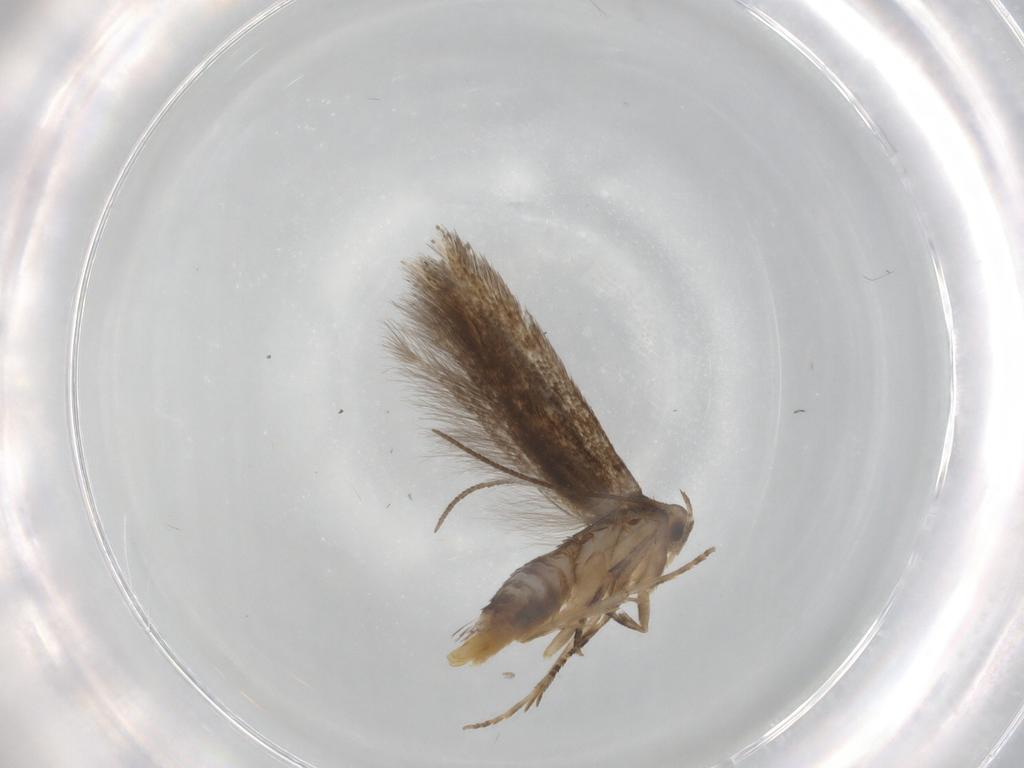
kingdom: Animalia
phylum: Arthropoda
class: Insecta
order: Lepidoptera
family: Elachistidae
